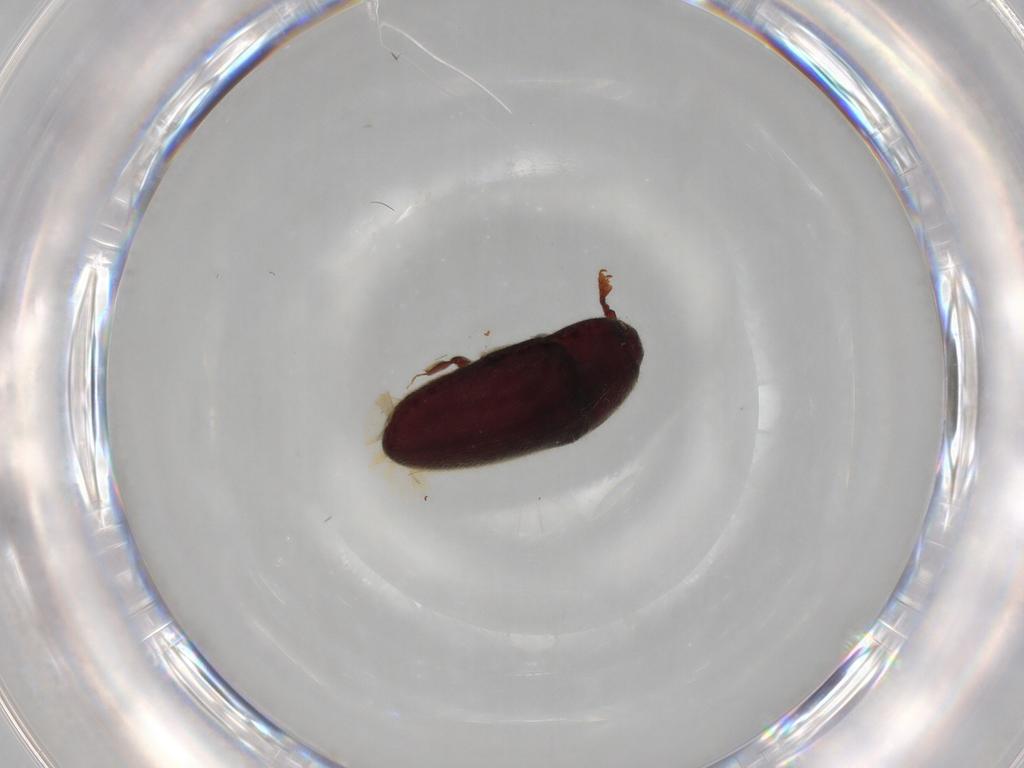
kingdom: Animalia
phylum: Arthropoda
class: Insecta
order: Coleoptera
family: Throscidae
